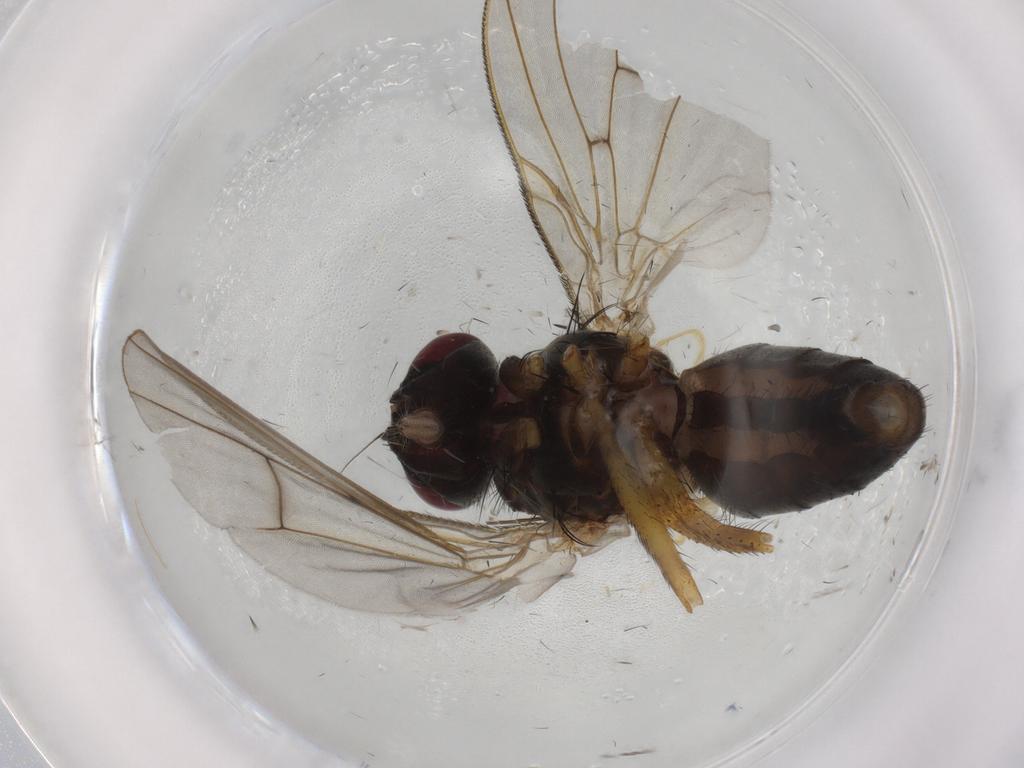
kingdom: Animalia
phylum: Arthropoda
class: Insecta
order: Diptera
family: Muscidae
